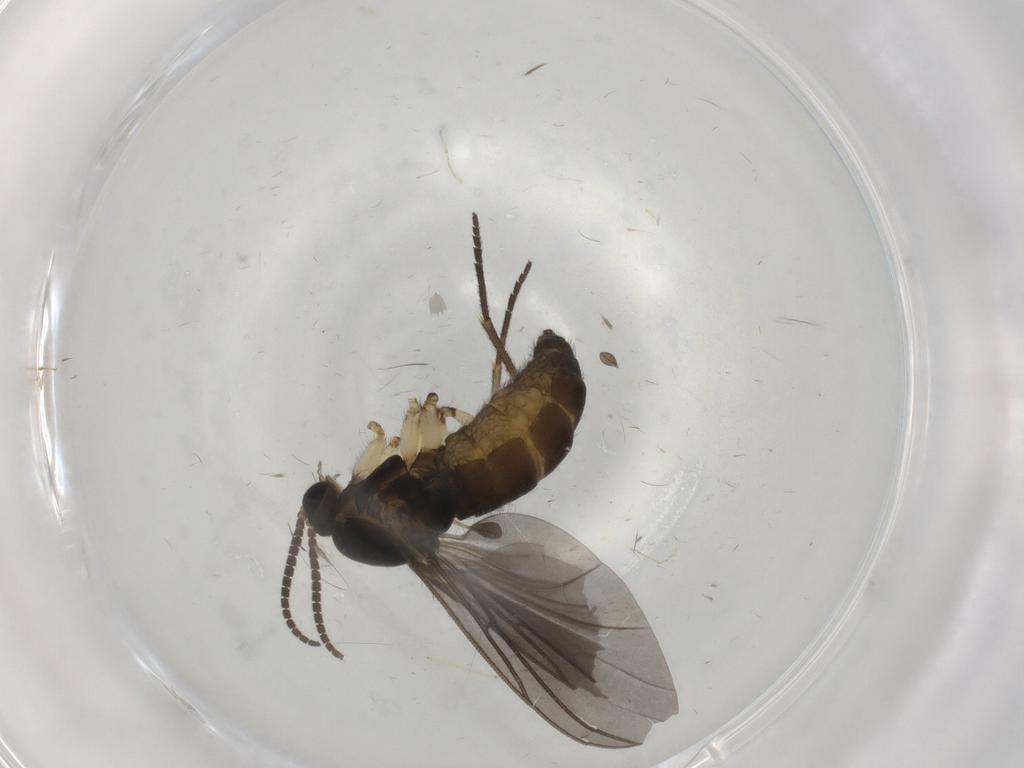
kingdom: Animalia
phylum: Arthropoda
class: Insecta
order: Diptera
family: Sciaridae
